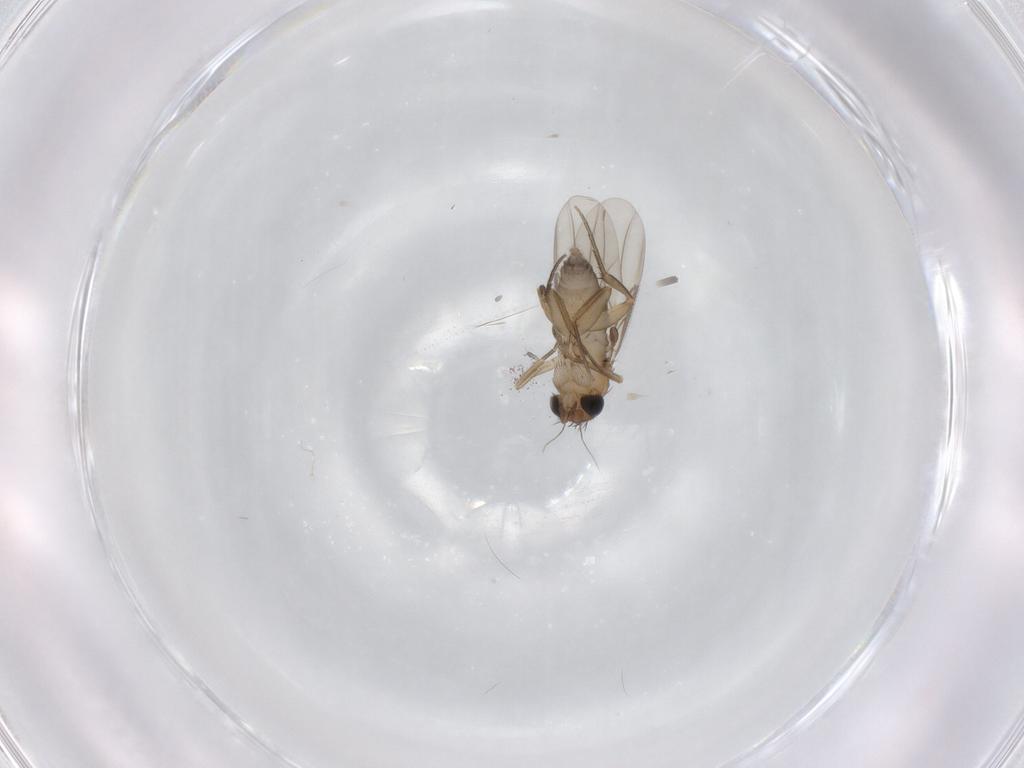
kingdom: Animalia
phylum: Arthropoda
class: Insecta
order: Diptera
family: Phoridae
